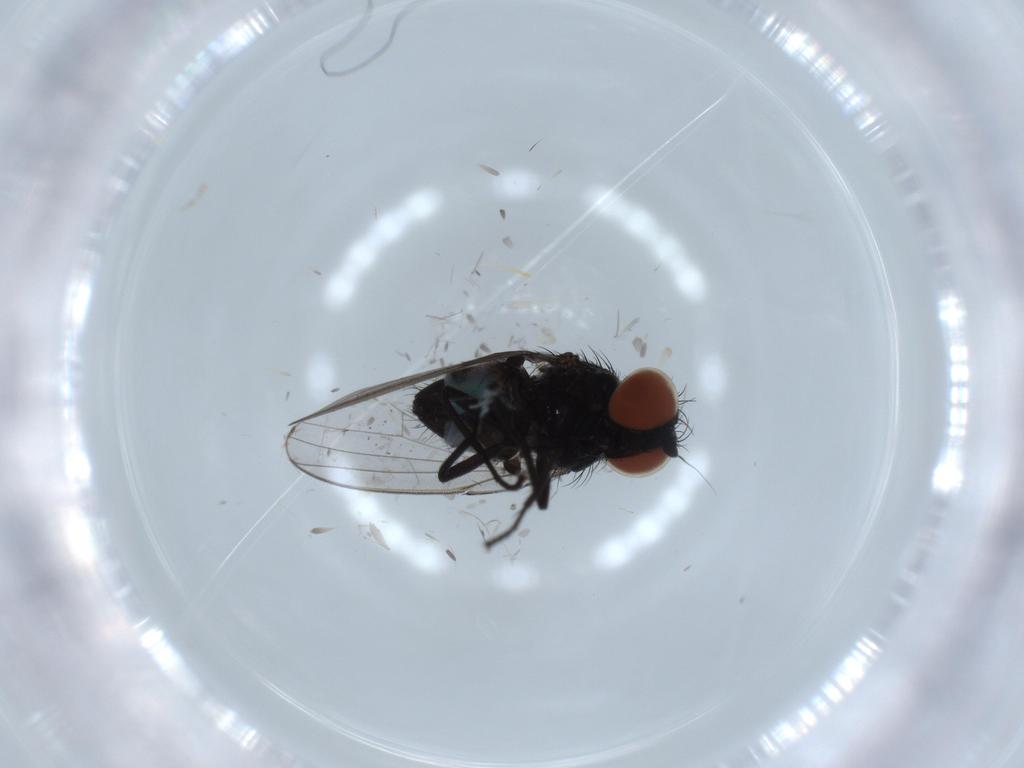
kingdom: Animalia
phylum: Arthropoda
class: Insecta
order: Diptera
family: Milichiidae
